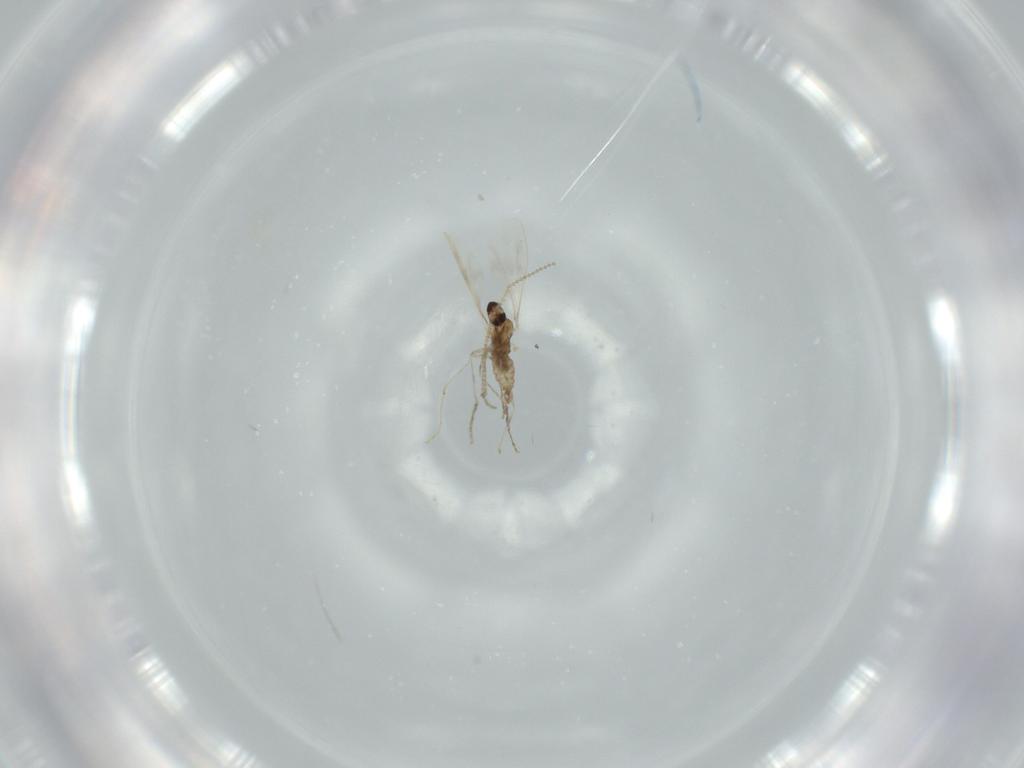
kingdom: Animalia
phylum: Arthropoda
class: Insecta
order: Diptera
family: Cecidomyiidae
